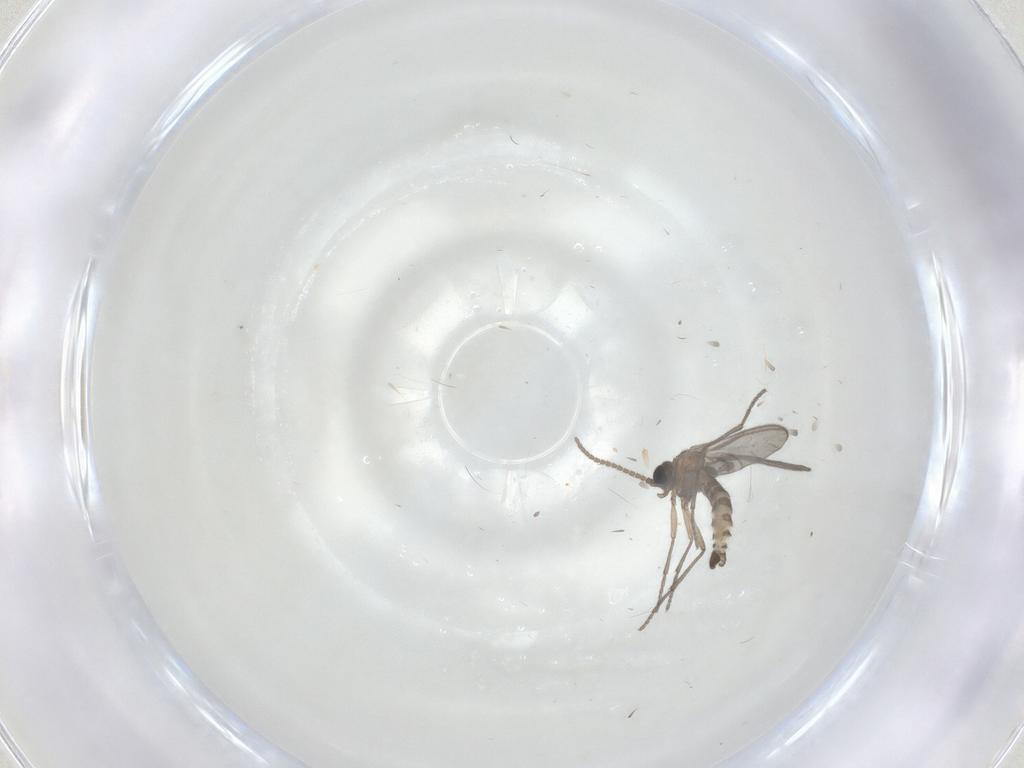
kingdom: Animalia
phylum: Arthropoda
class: Insecta
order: Diptera
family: Sciaridae
